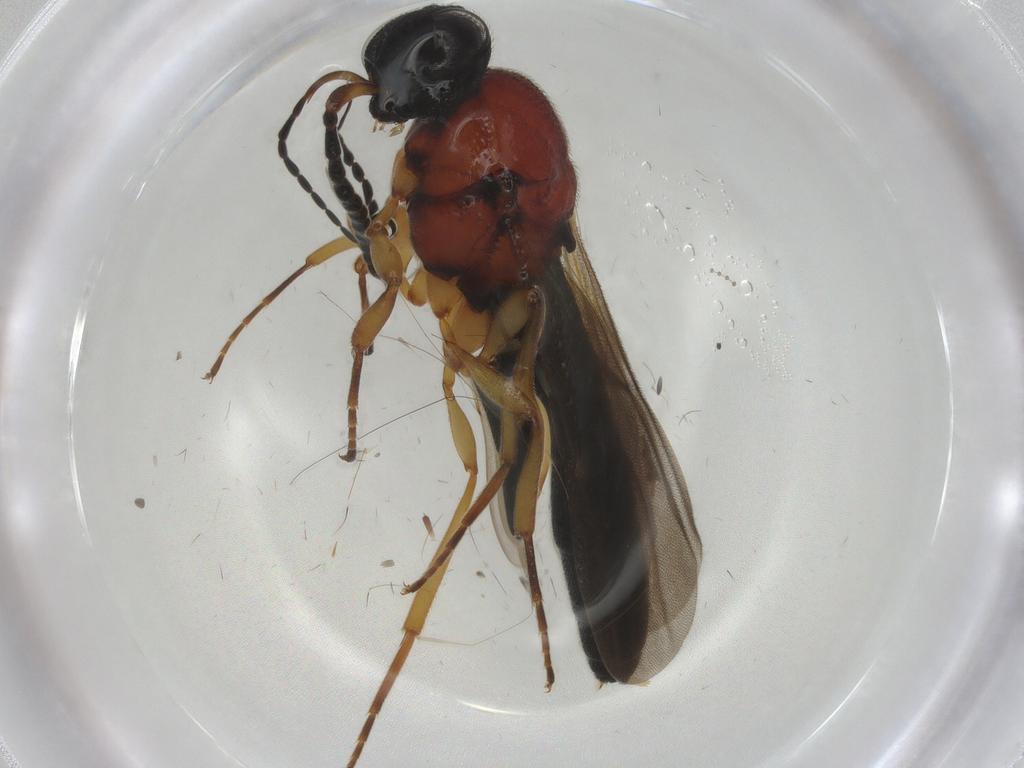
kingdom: Animalia
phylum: Arthropoda
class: Insecta
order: Hymenoptera
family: Scelionidae
